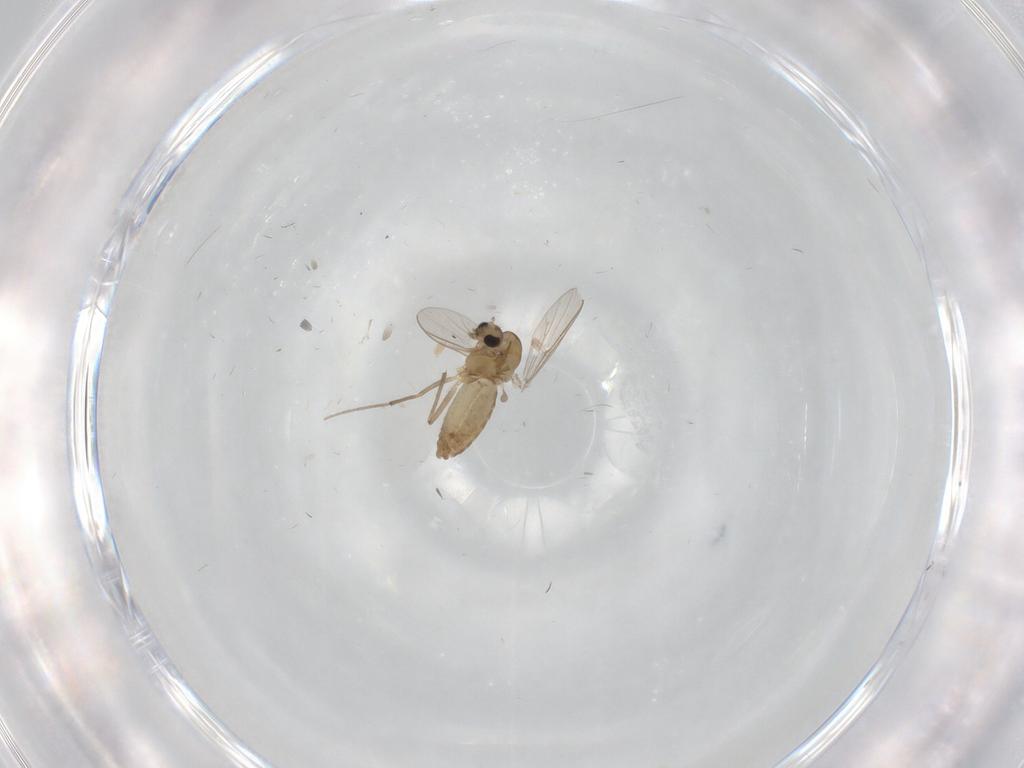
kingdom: Animalia
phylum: Arthropoda
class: Insecta
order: Diptera
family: Chironomidae
